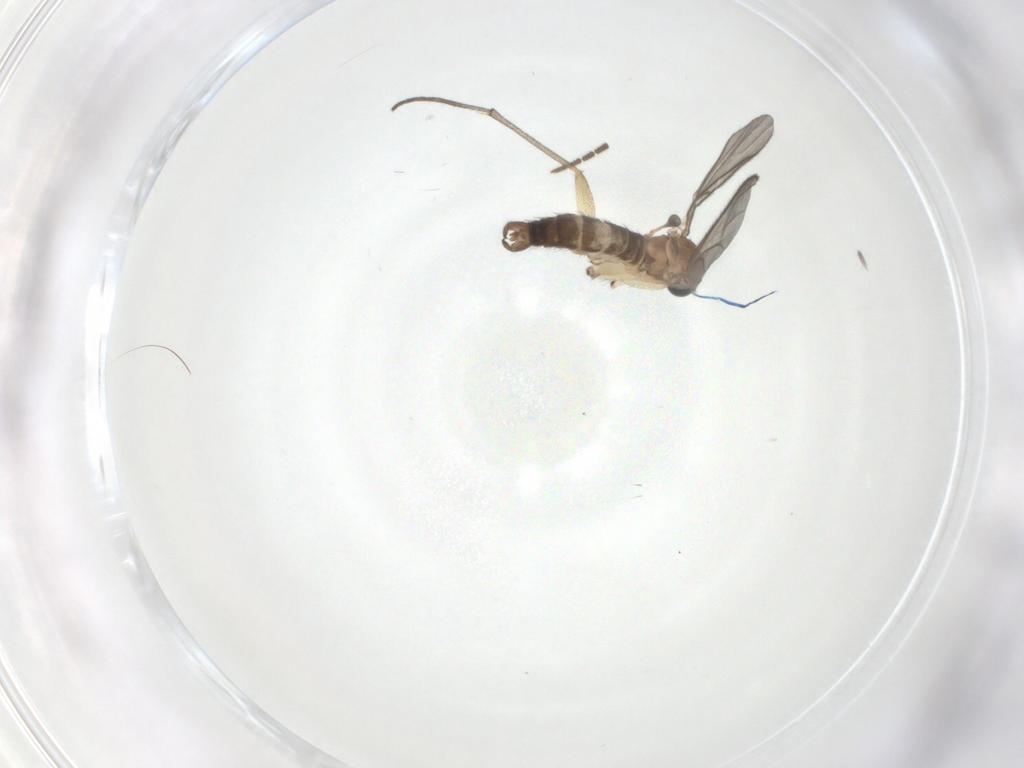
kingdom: Animalia
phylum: Arthropoda
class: Insecta
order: Diptera
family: Sciaridae
